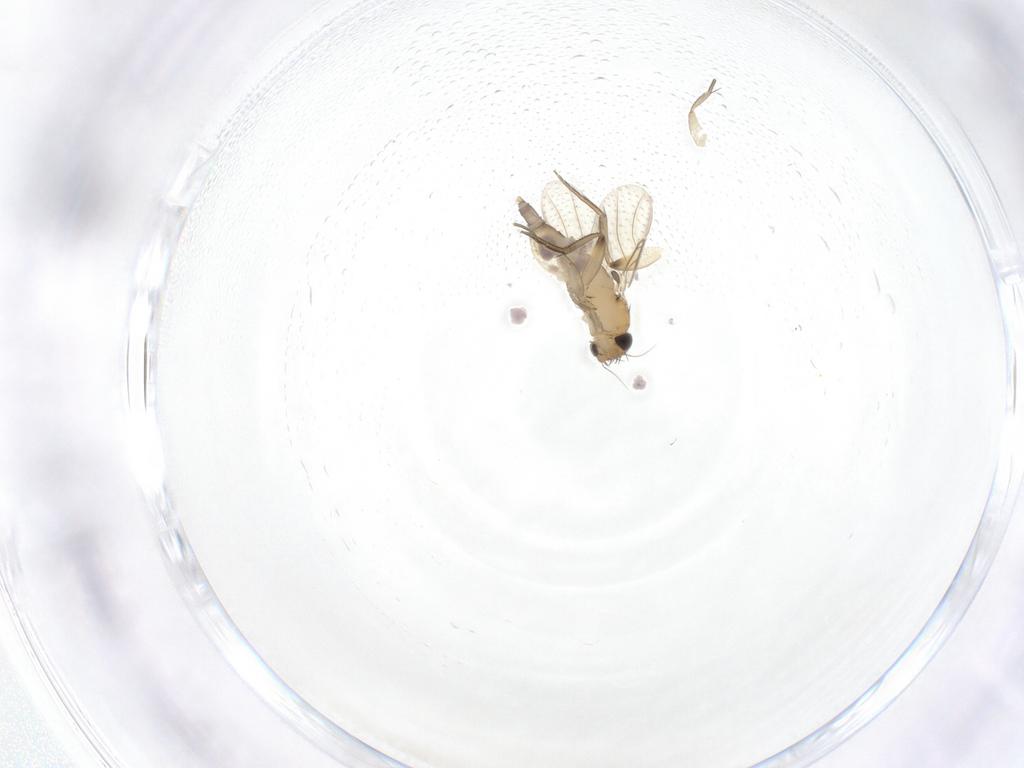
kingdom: Animalia
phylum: Arthropoda
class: Insecta
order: Diptera
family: Phoridae
